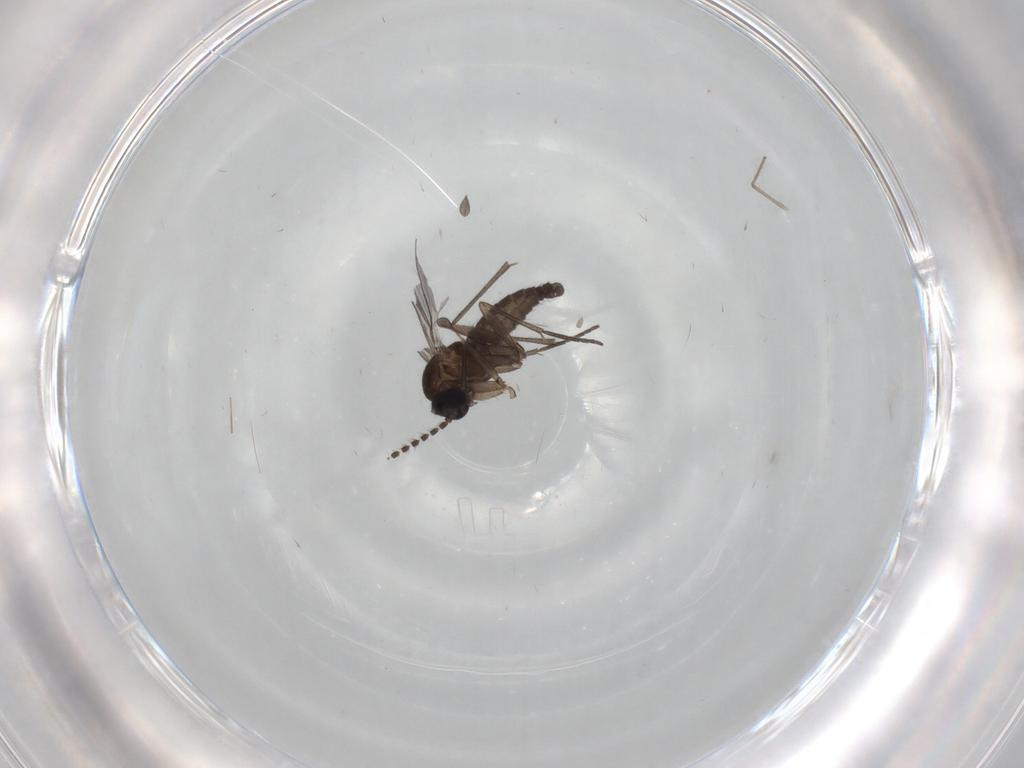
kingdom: Animalia
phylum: Arthropoda
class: Insecta
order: Diptera
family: Sciaridae
